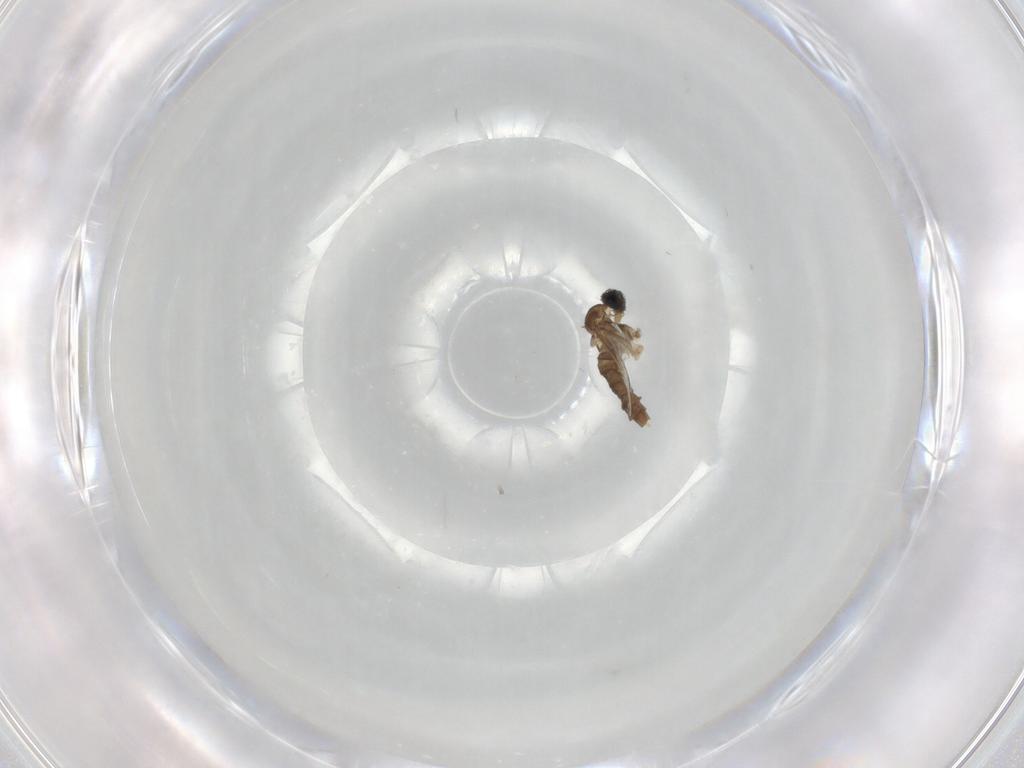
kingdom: Animalia
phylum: Arthropoda
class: Insecta
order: Diptera
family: Cecidomyiidae
